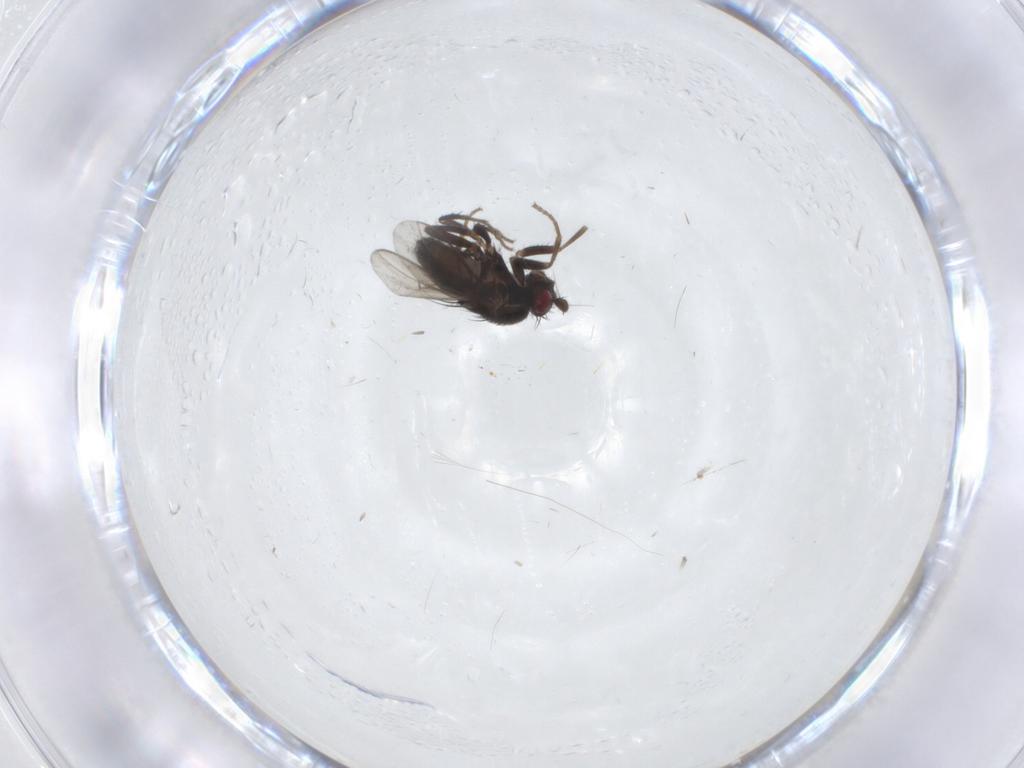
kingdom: Animalia
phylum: Arthropoda
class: Insecta
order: Diptera
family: Sphaeroceridae
